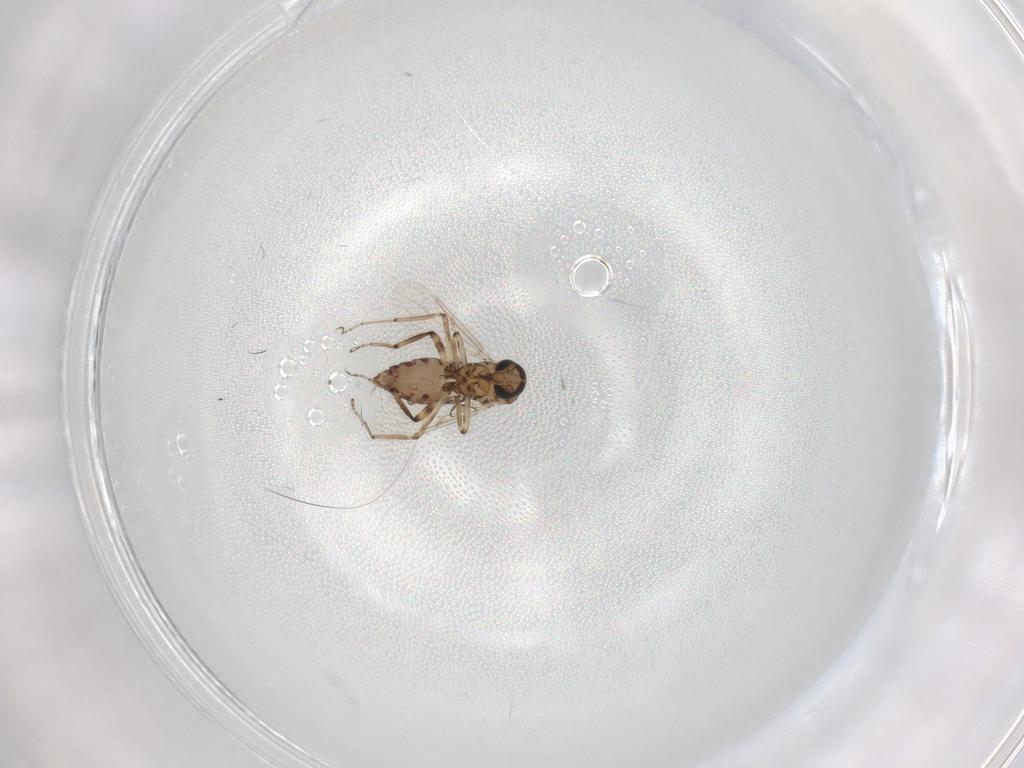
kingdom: Animalia
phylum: Arthropoda
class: Insecta
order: Diptera
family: Ceratopogonidae
